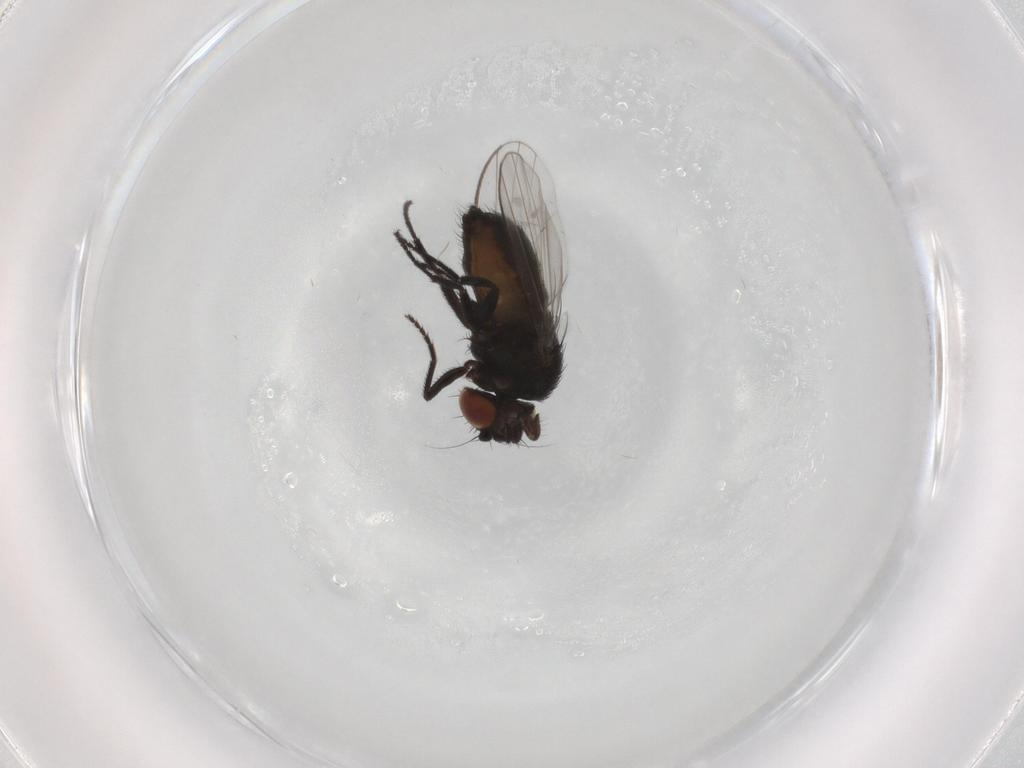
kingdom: Animalia
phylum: Arthropoda
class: Insecta
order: Diptera
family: Milichiidae
